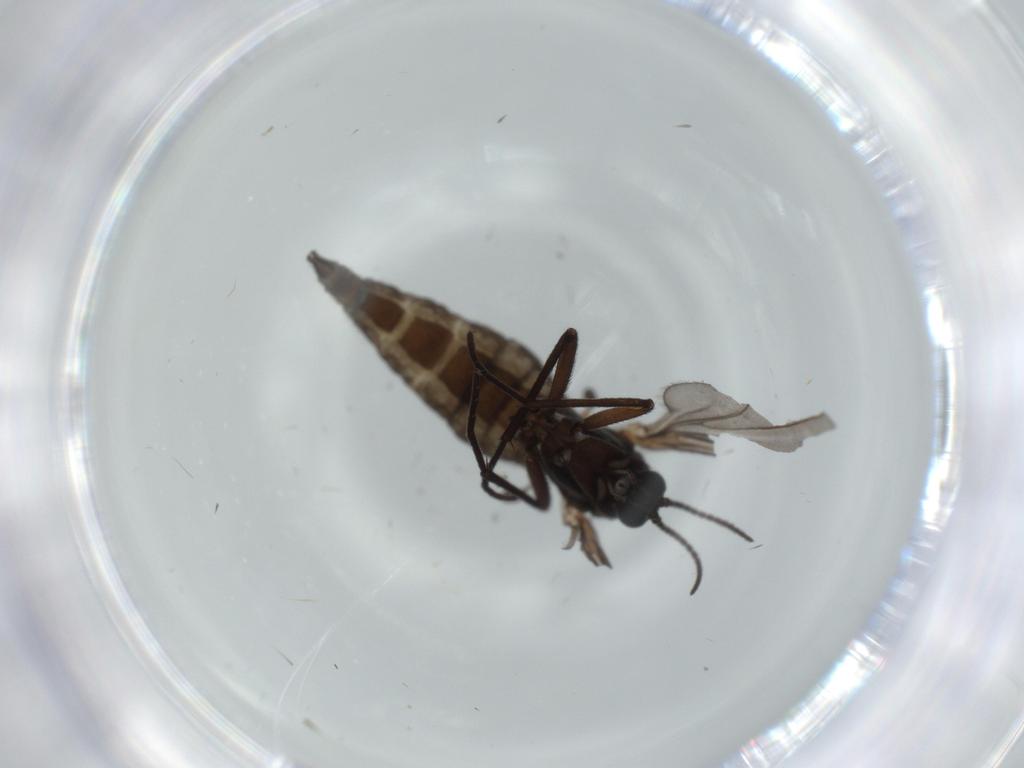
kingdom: Animalia
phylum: Arthropoda
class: Insecta
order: Diptera
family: Sciaridae
